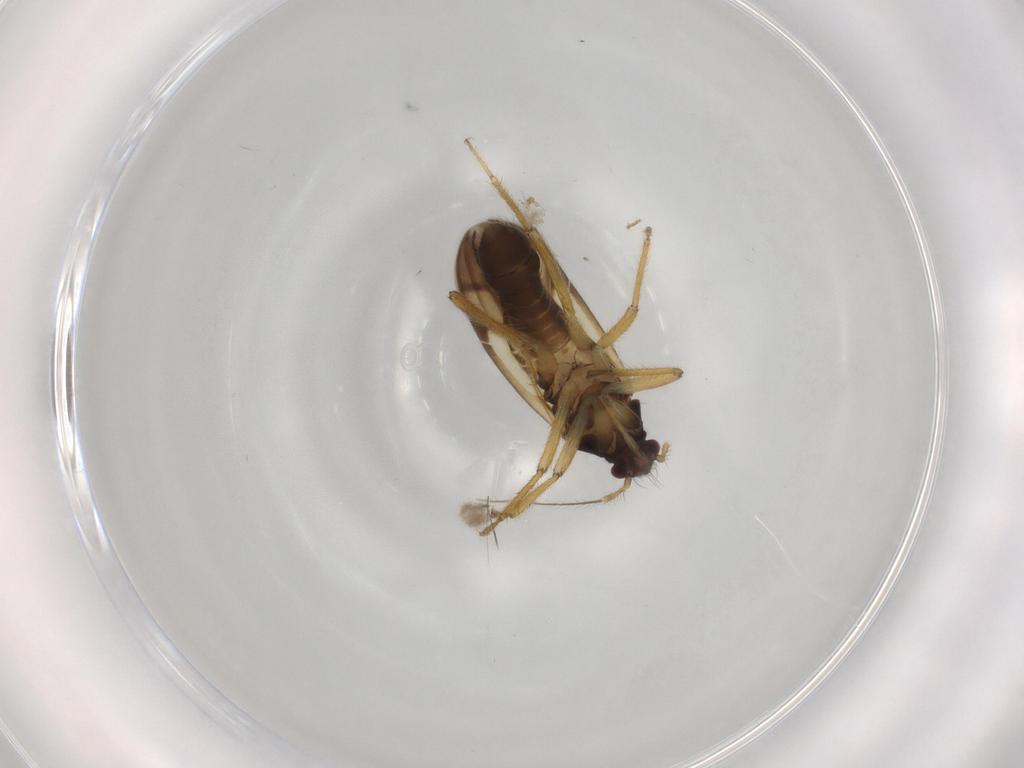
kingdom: Animalia
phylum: Arthropoda
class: Insecta
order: Hemiptera
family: Ceratocombidae
